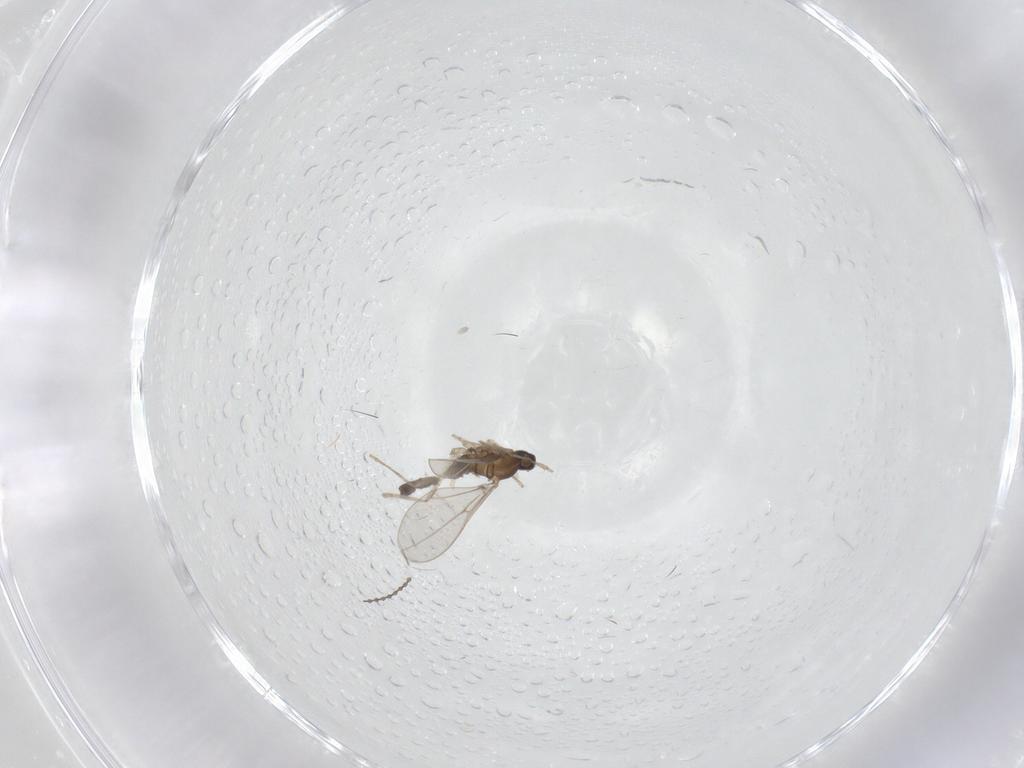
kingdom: Animalia
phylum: Arthropoda
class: Insecta
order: Diptera
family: Cecidomyiidae
